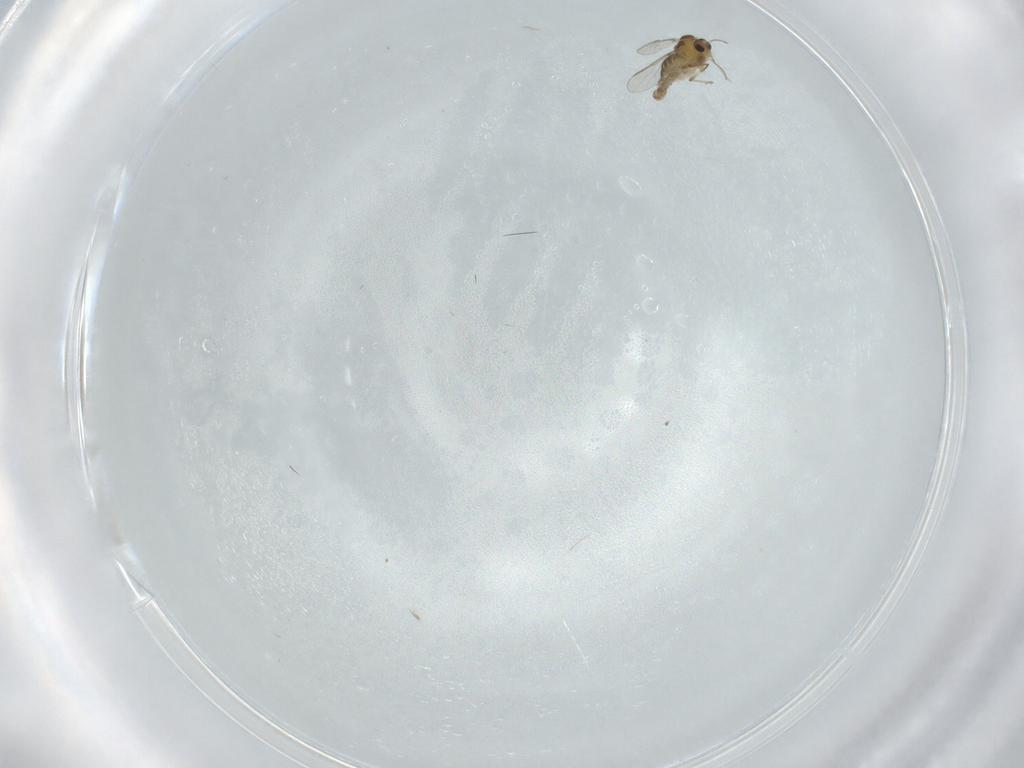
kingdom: Animalia
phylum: Arthropoda
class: Insecta
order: Diptera
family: Chironomidae
